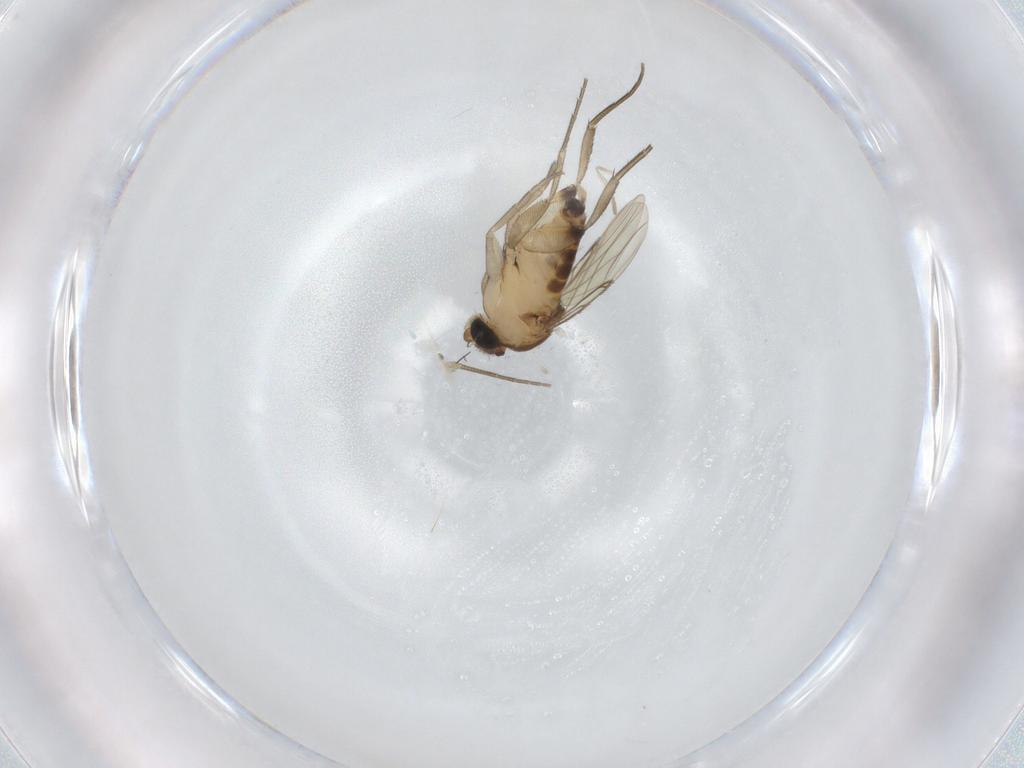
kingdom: Animalia
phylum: Arthropoda
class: Insecta
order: Diptera
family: Phoridae
